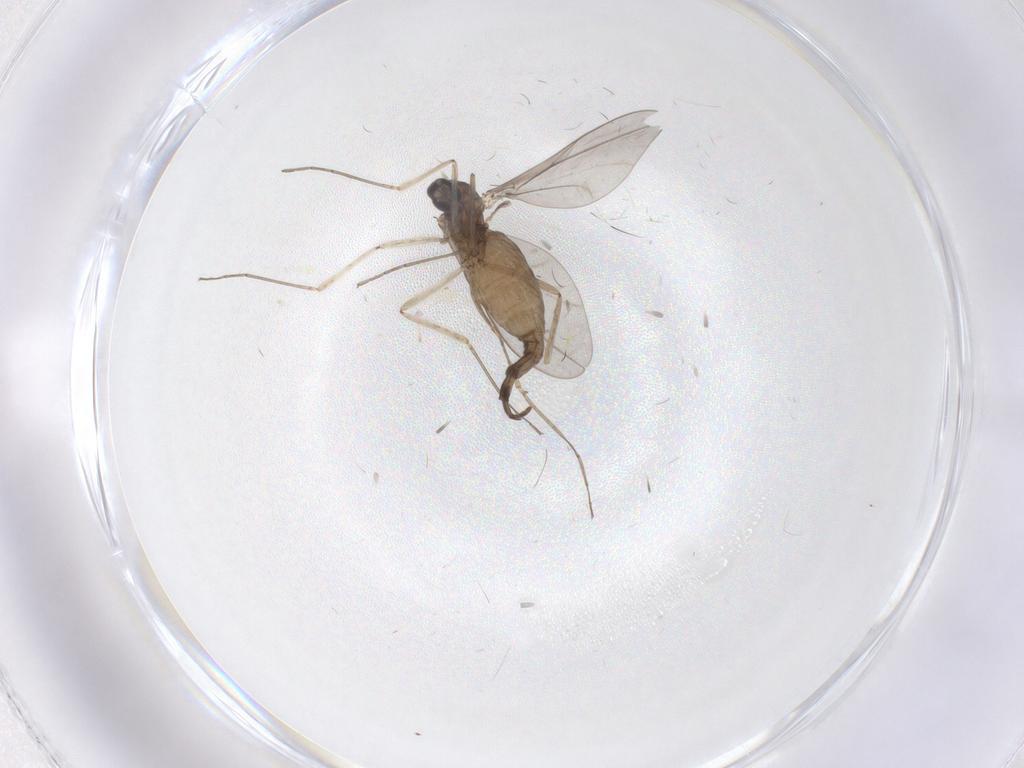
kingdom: Animalia
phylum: Arthropoda
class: Insecta
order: Diptera
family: Cecidomyiidae
